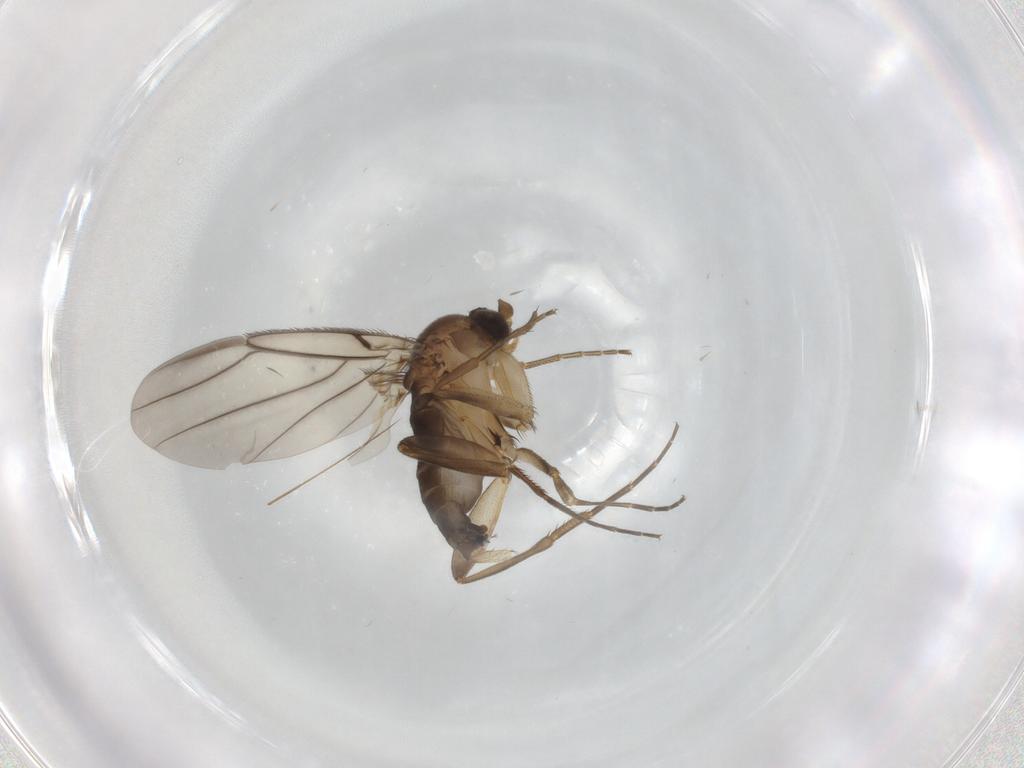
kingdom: Animalia
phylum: Arthropoda
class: Insecta
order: Diptera
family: Phoridae
